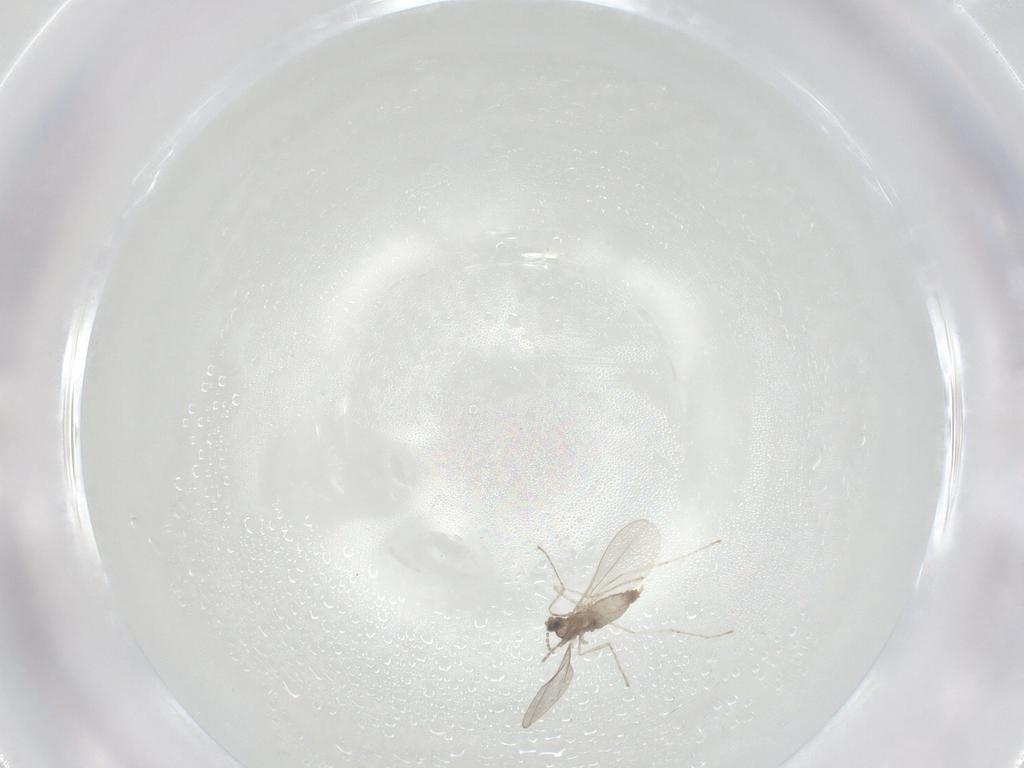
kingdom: Animalia
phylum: Arthropoda
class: Insecta
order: Diptera
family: Cecidomyiidae
